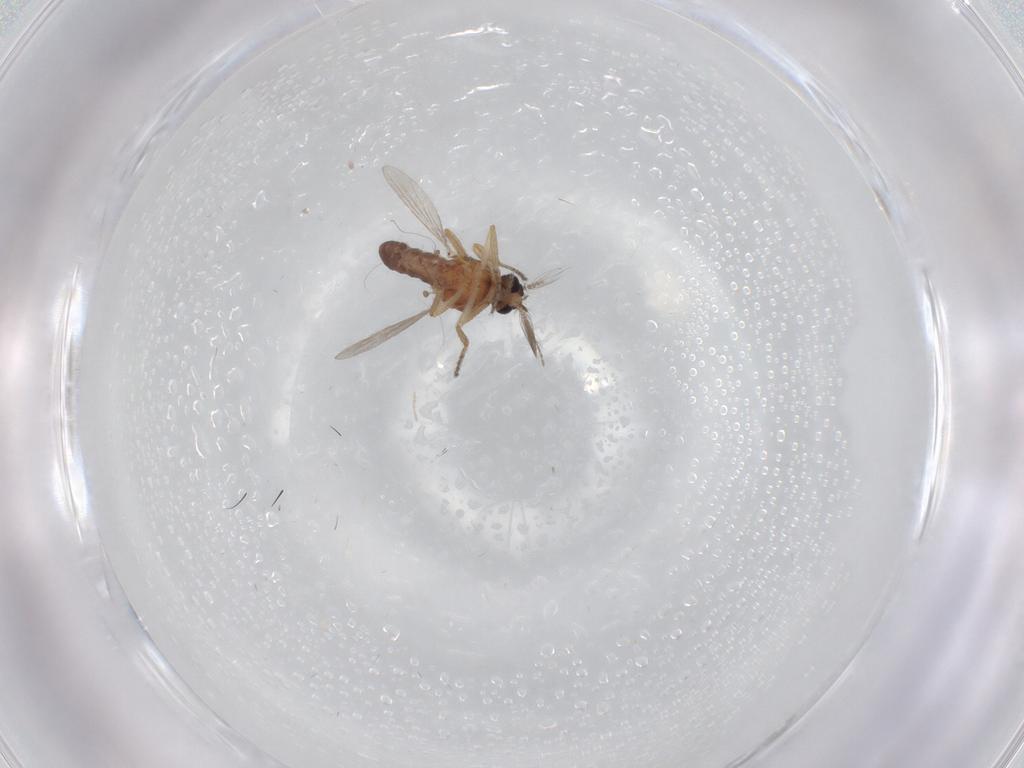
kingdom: Animalia
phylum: Arthropoda
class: Insecta
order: Diptera
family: Ceratopogonidae
